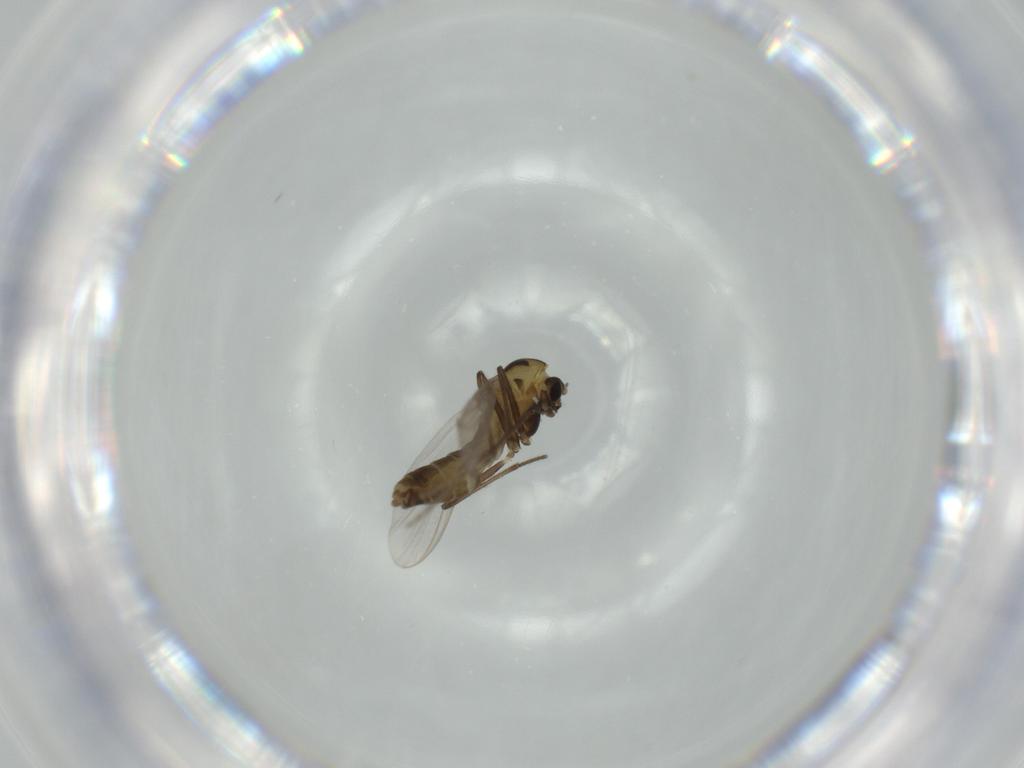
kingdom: Animalia
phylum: Arthropoda
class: Insecta
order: Diptera
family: Chironomidae
